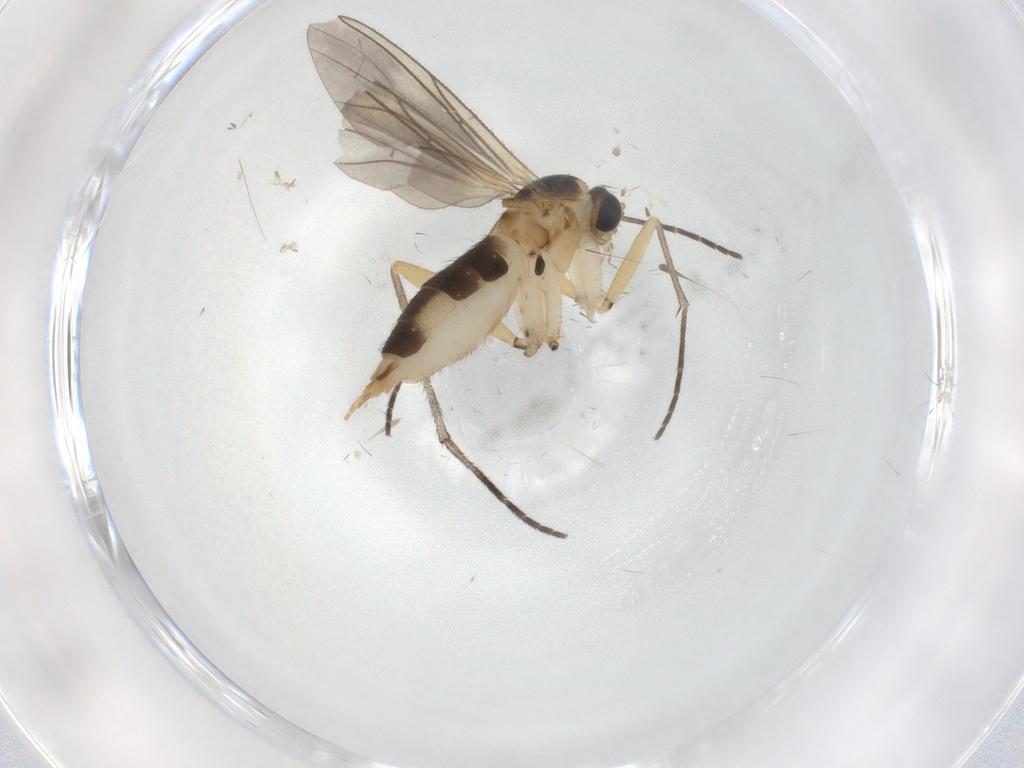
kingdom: Animalia
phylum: Arthropoda
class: Insecta
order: Diptera
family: Sciaridae
